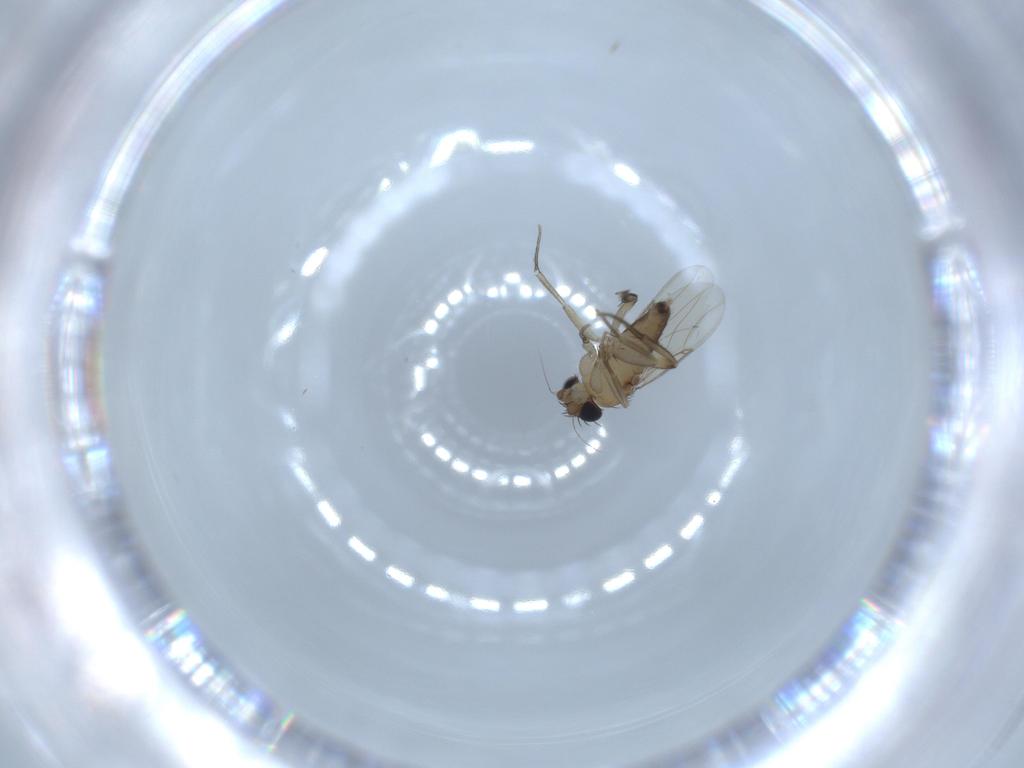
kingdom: Animalia
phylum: Arthropoda
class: Insecta
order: Diptera
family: Phoridae
